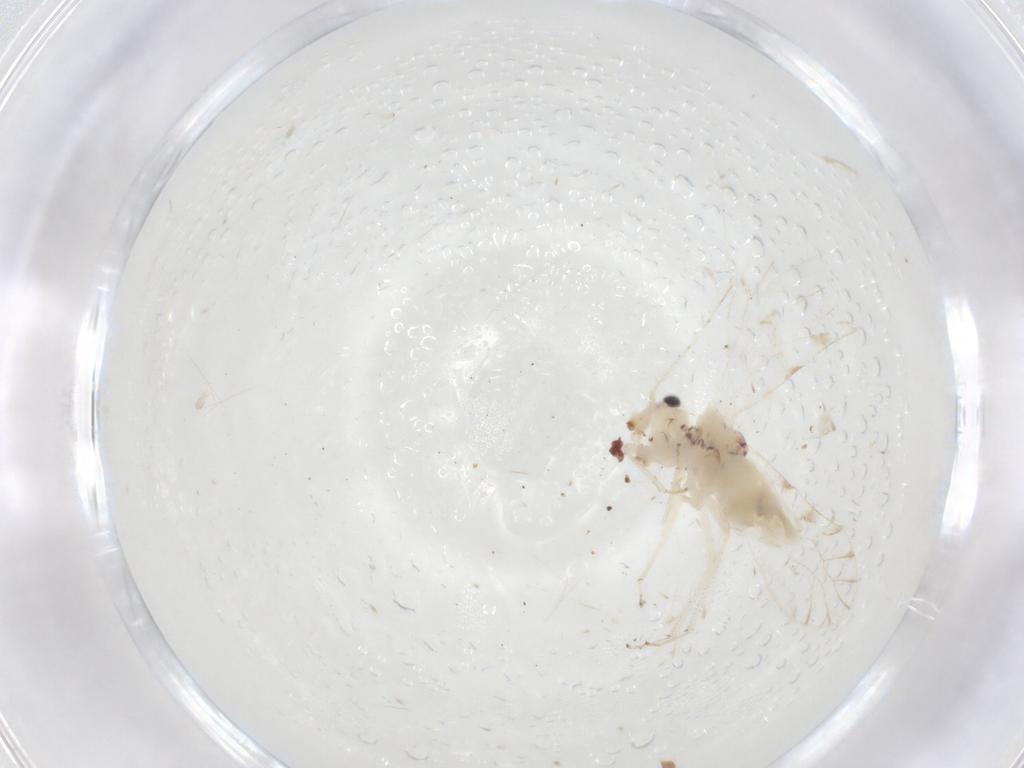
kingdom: Animalia
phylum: Arthropoda
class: Insecta
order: Psocodea
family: Trichopsocidae
